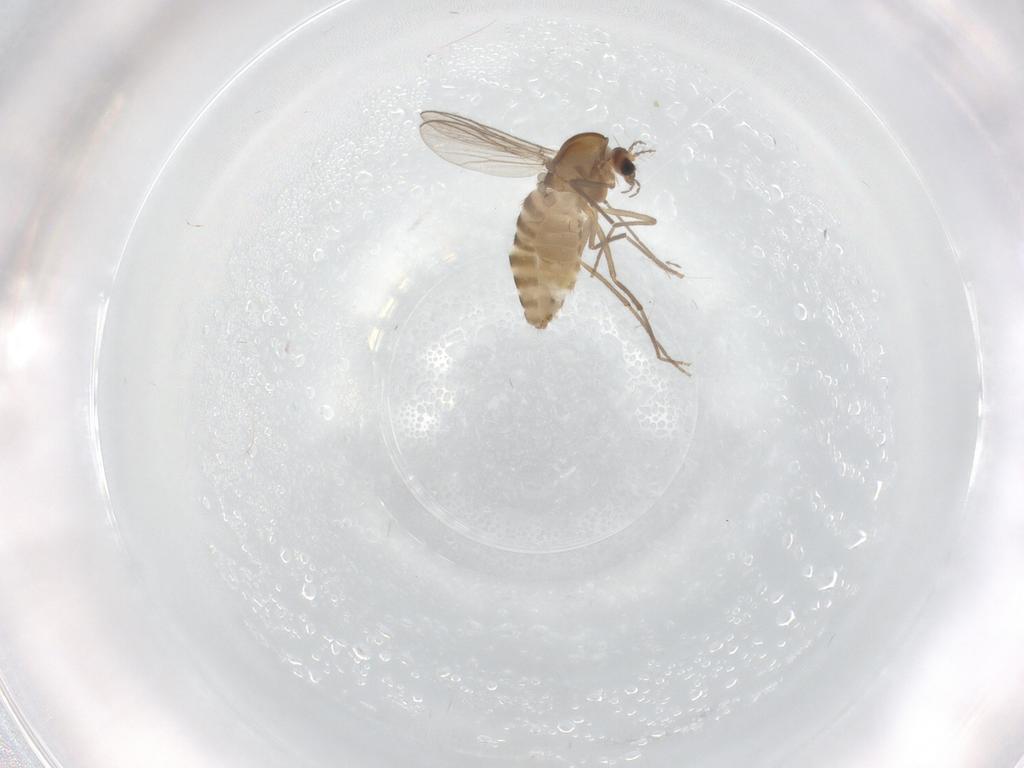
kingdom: Animalia
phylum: Arthropoda
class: Insecta
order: Diptera
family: Chironomidae
